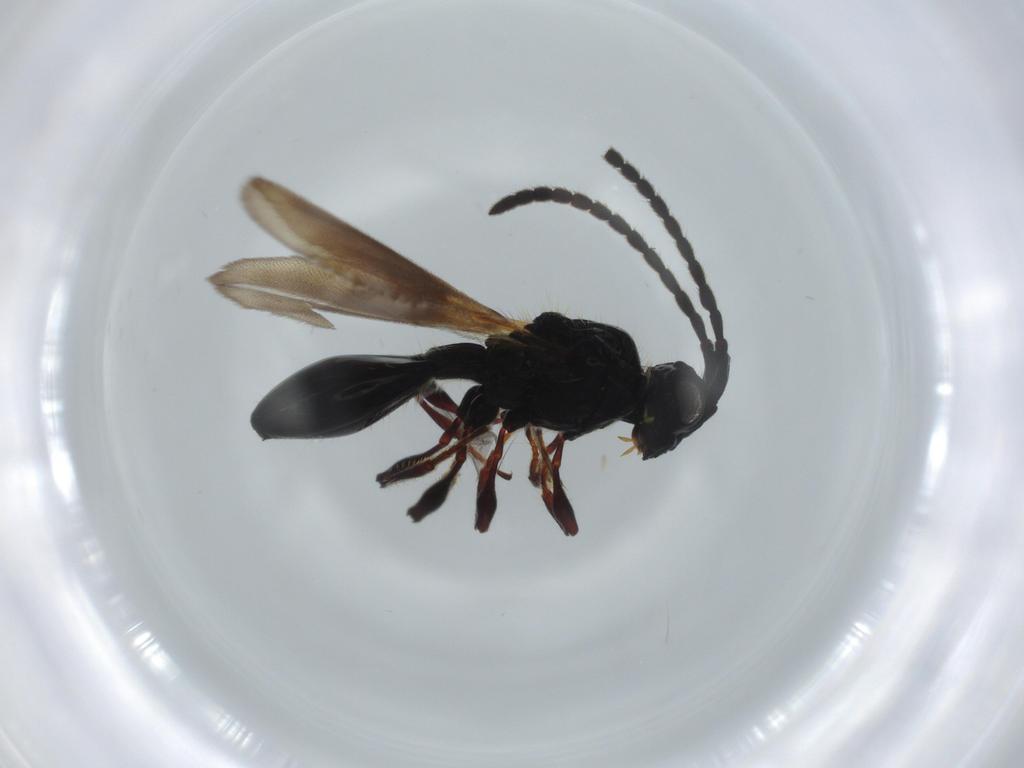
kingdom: Animalia
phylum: Arthropoda
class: Insecta
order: Hymenoptera
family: Diapriidae
